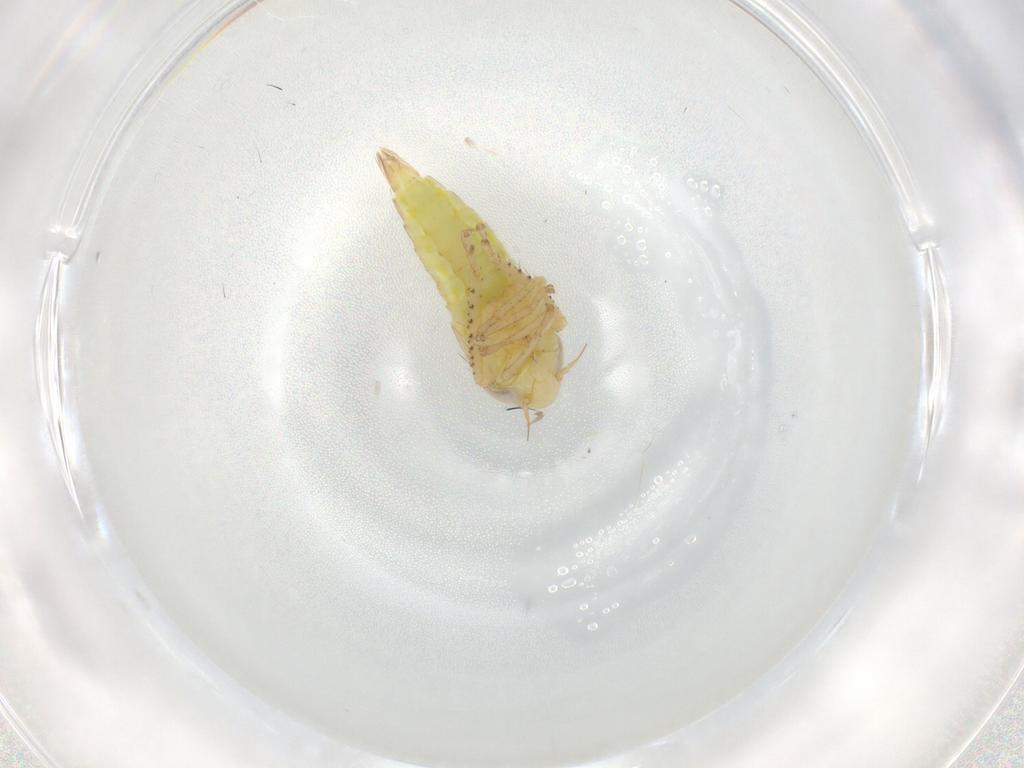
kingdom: Animalia
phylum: Arthropoda
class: Insecta
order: Hemiptera
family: Cicadellidae
